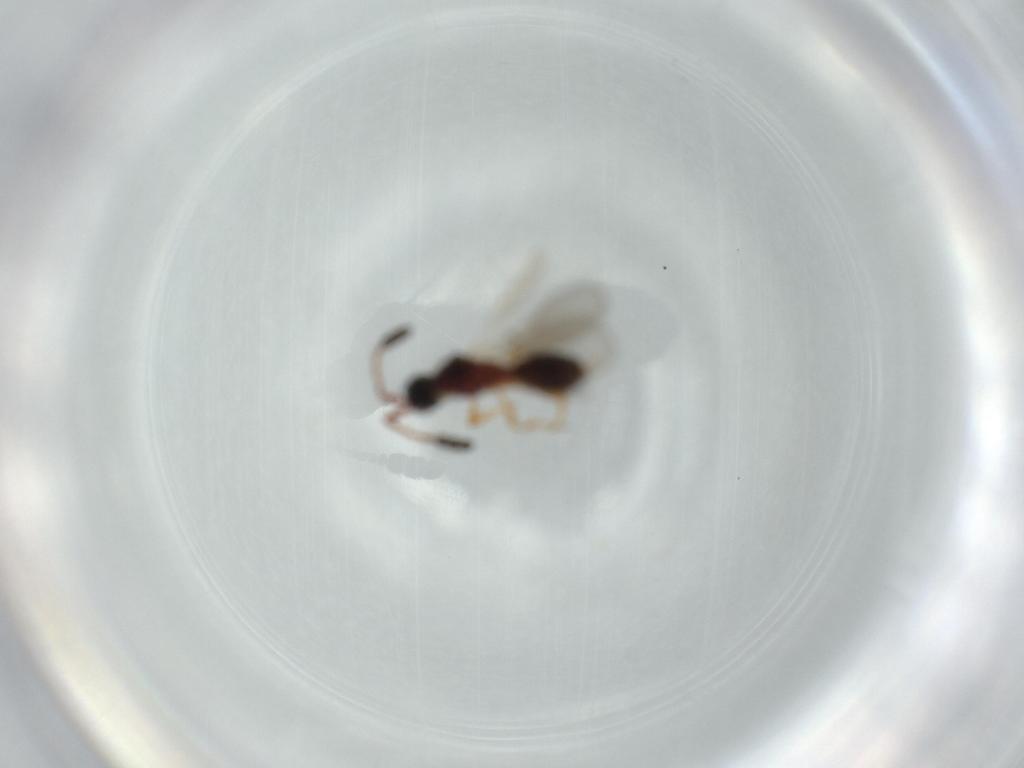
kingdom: Animalia
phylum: Arthropoda
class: Insecta
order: Hymenoptera
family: Diapriidae
